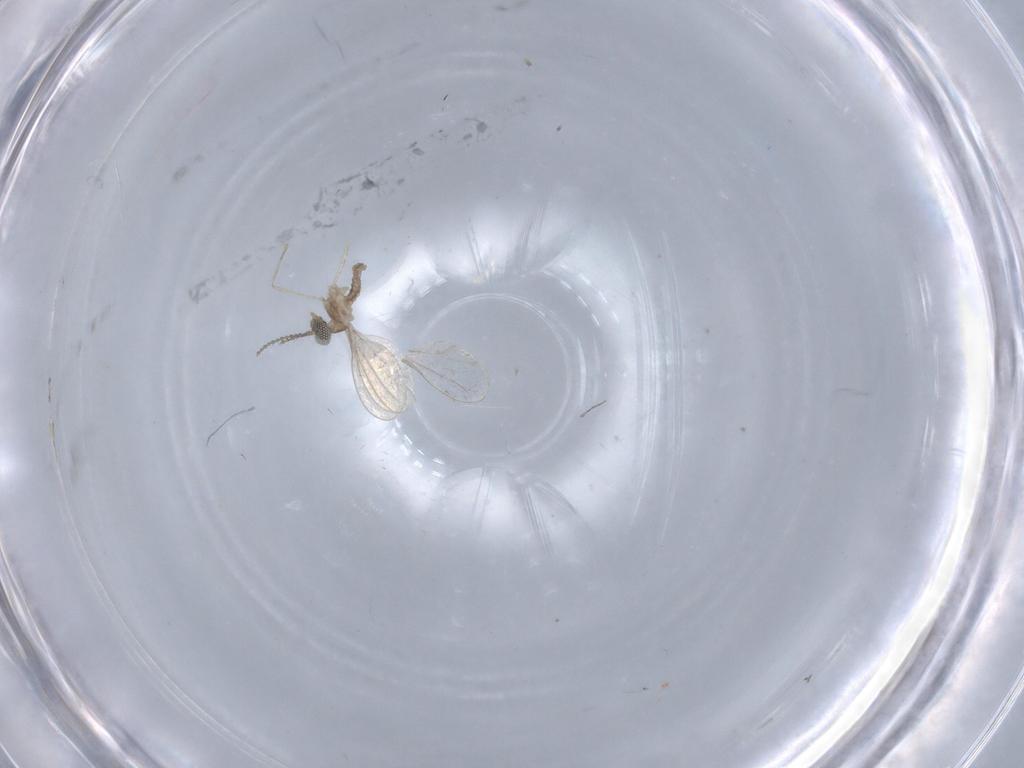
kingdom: Animalia
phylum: Arthropoda
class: Insecta
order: Diptera
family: Cecidomyiidae
